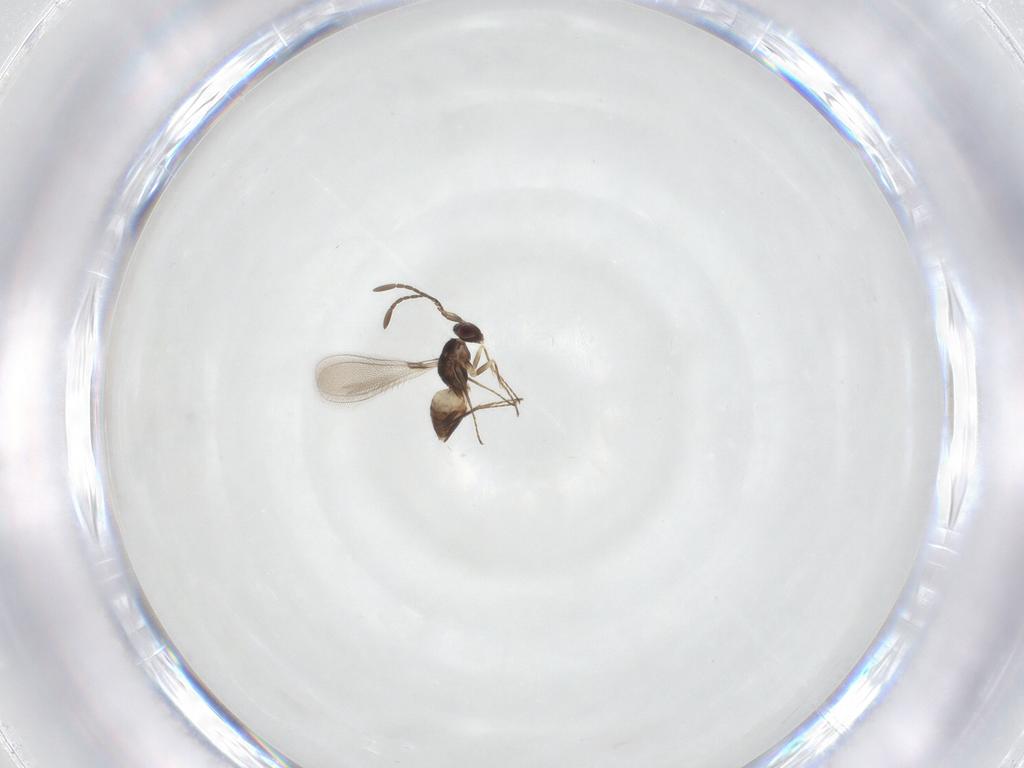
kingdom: Animalia
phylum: Arthropoda
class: Insecta
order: Hymenoptera
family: Mymaridae
